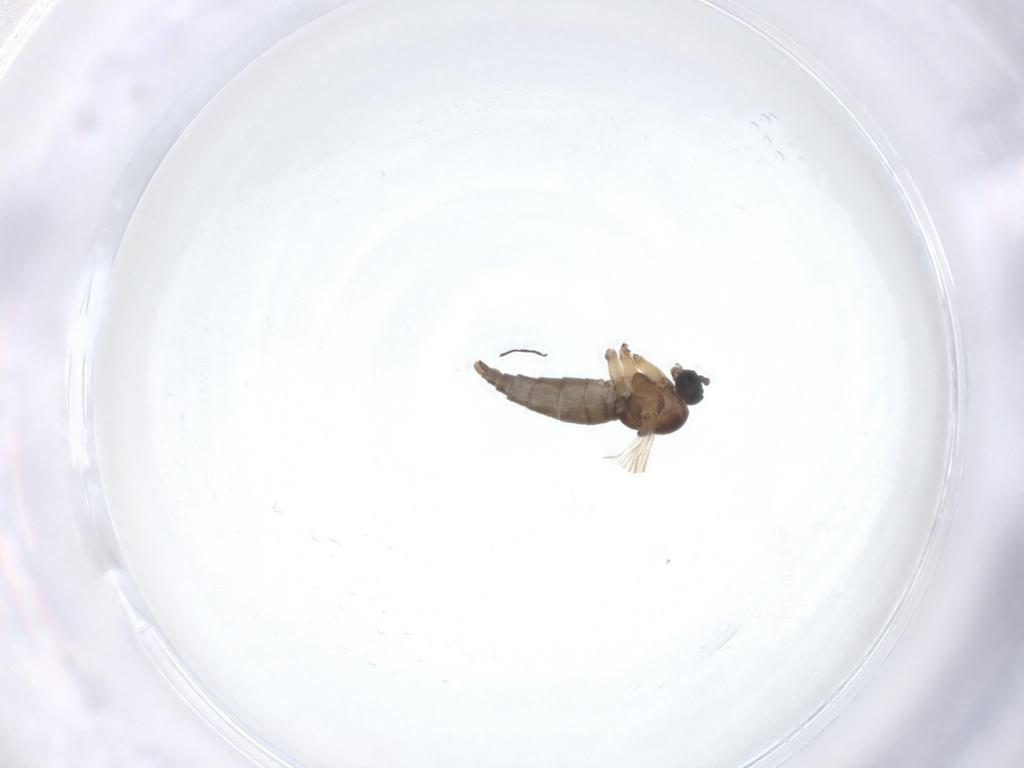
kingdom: Animalia
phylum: Arthropoda
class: Insecta
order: Diptera
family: Sciaridae
